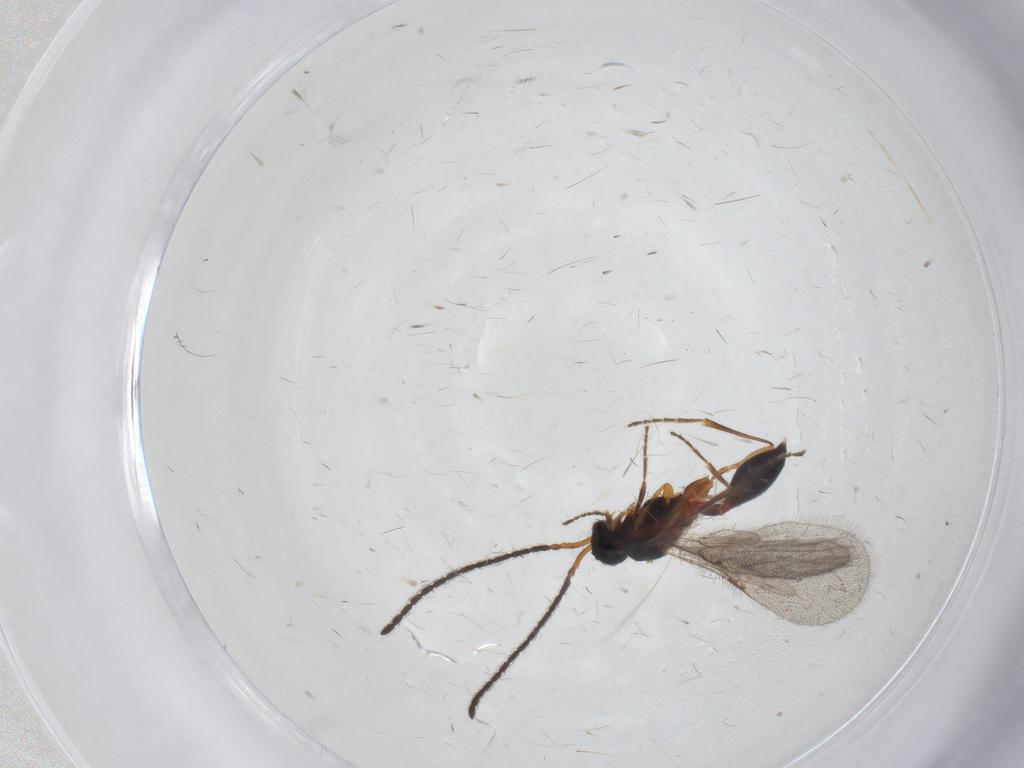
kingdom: Animalia
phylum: Arthropoda
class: Insecta
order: Hymenoptera
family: Diapriidae
